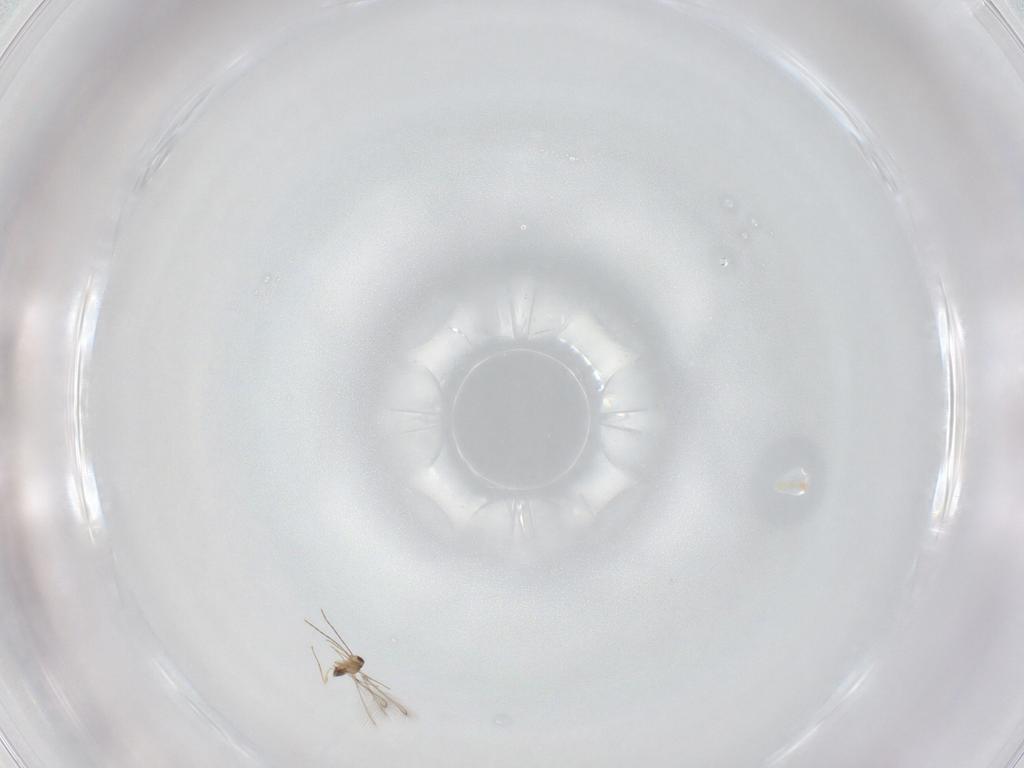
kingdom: Animalia
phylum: Arthropoda
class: Insecta
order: Hymenoptera
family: Mymaridae
